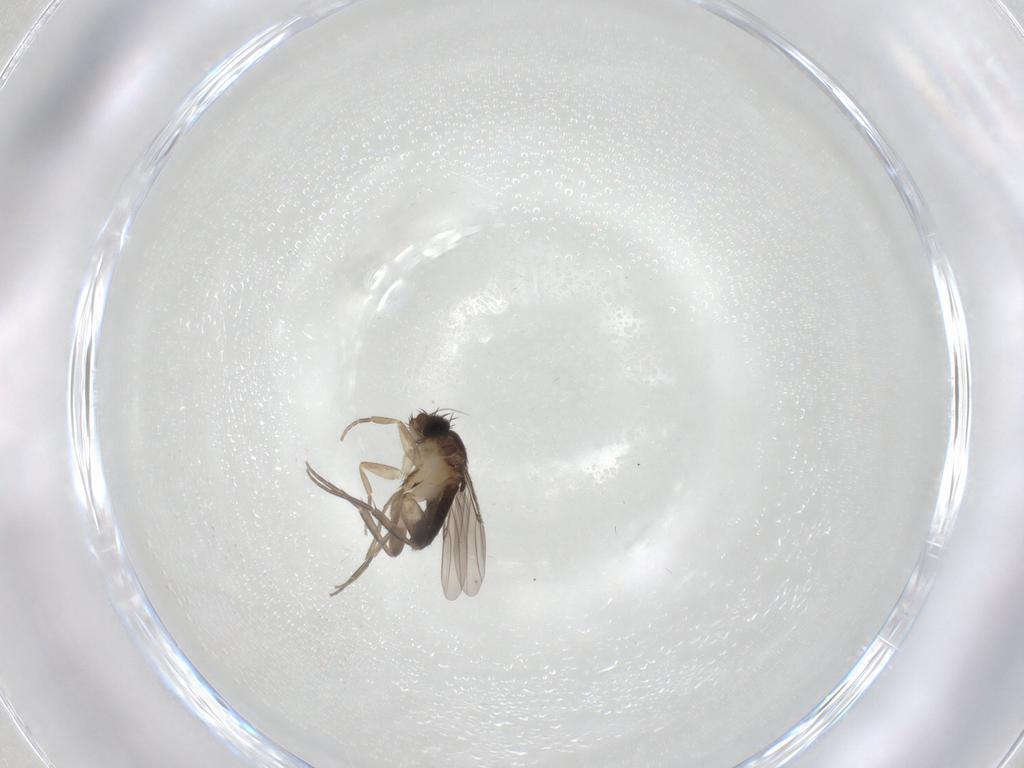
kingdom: Animalia
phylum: Arthropoda
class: Insecta
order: Diptera
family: Phoridae
